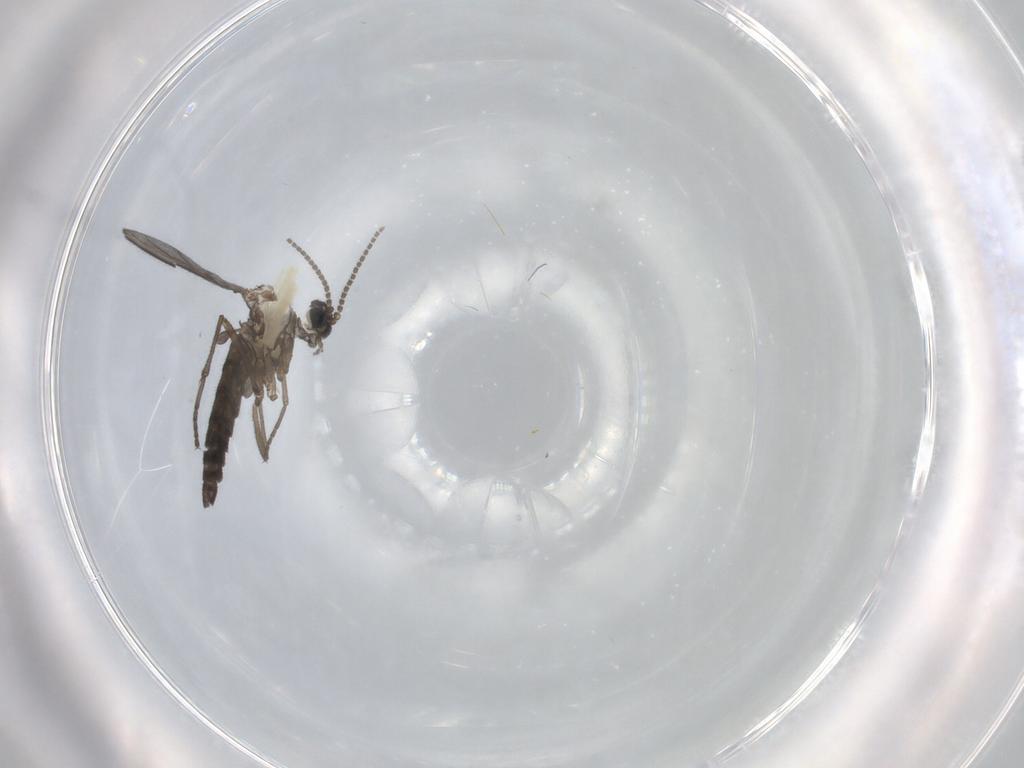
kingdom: Animalia
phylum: Arthropoda
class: Insecta
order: Diptera
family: Sciaridae
